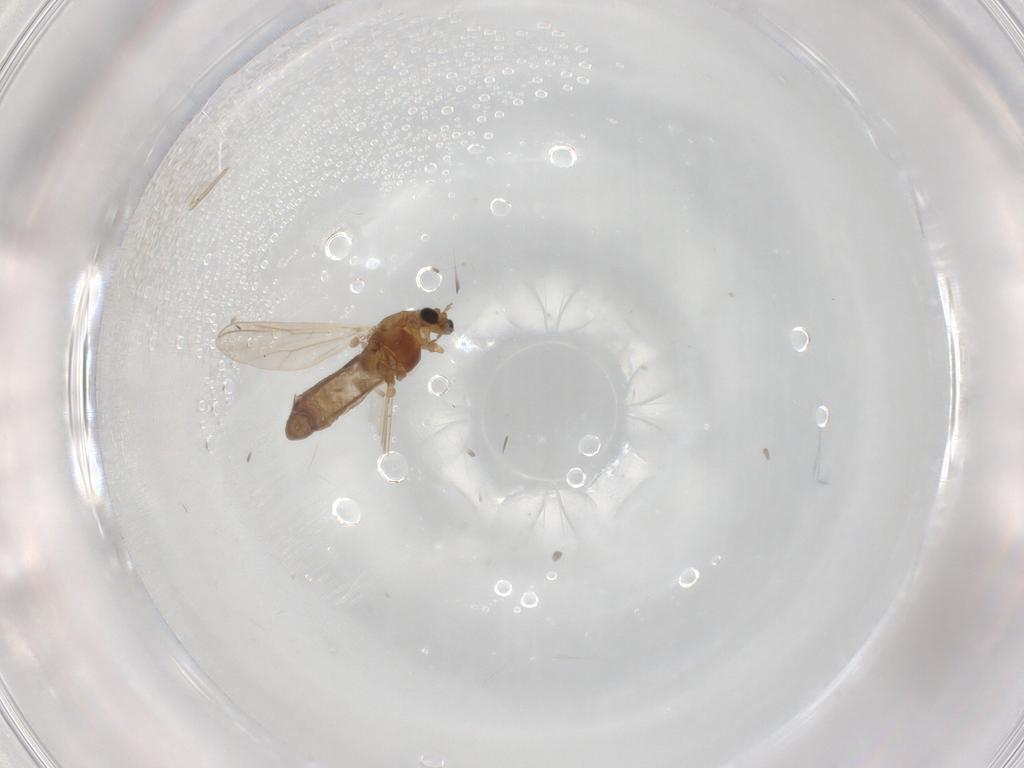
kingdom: Animalia
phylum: Arthropoda
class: Insecta
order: Diptera
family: Chironomidae
